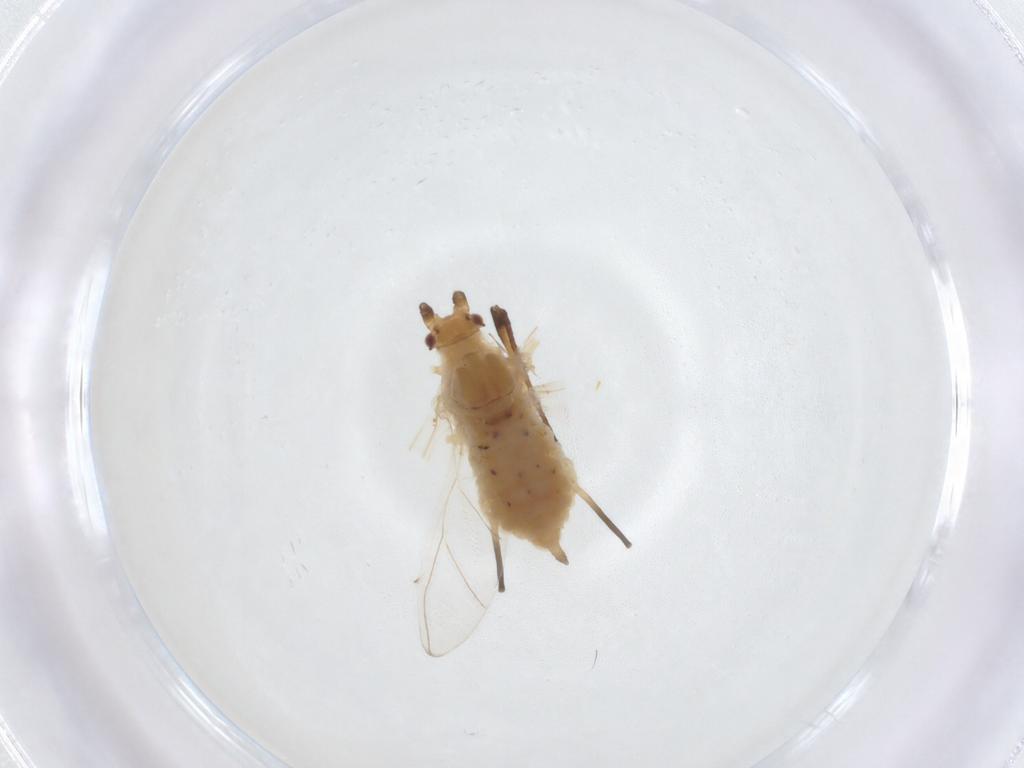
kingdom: Animalia
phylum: Arthropoda
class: Insecta
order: Hemiptera
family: Aphididae
